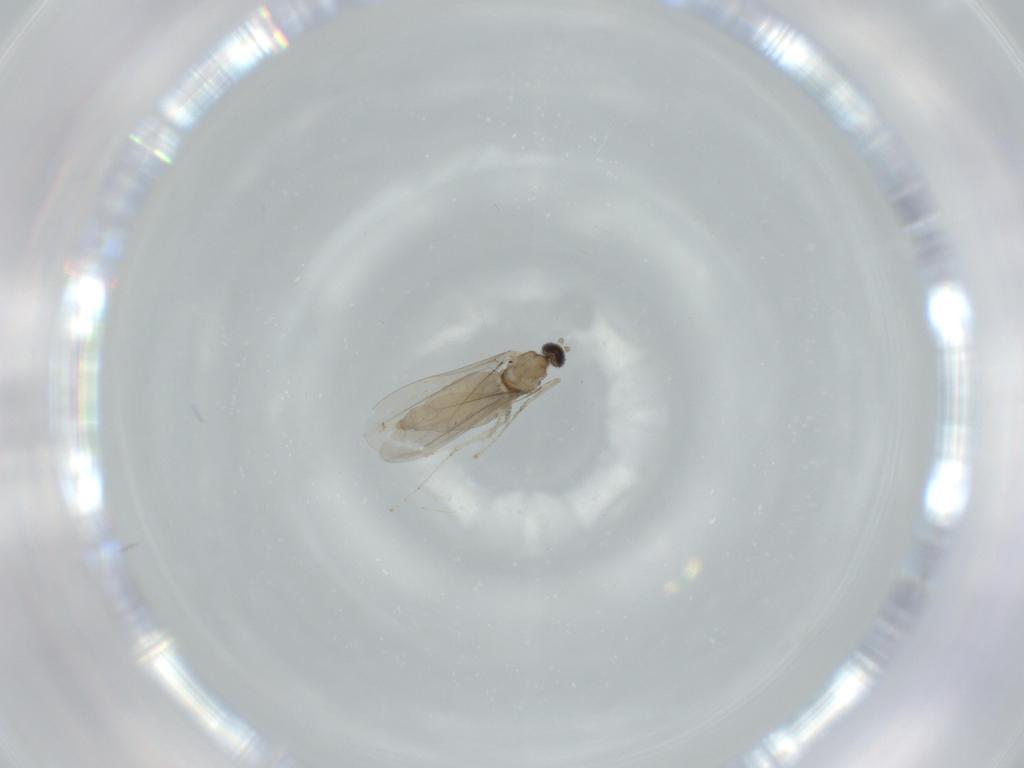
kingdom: Animalia
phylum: Arthropoda
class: Insecta
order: Diptera
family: Cecidomyiidae
